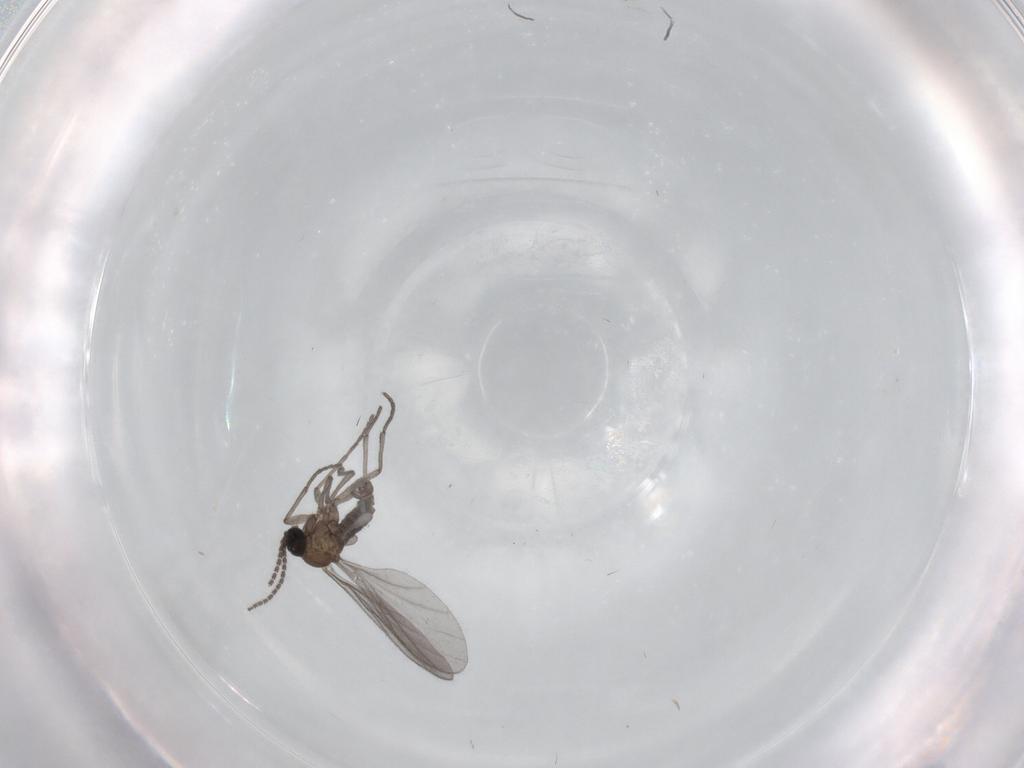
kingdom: Animalia
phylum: Arthropoda
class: Insecta
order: Diptera
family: Sciaridae
